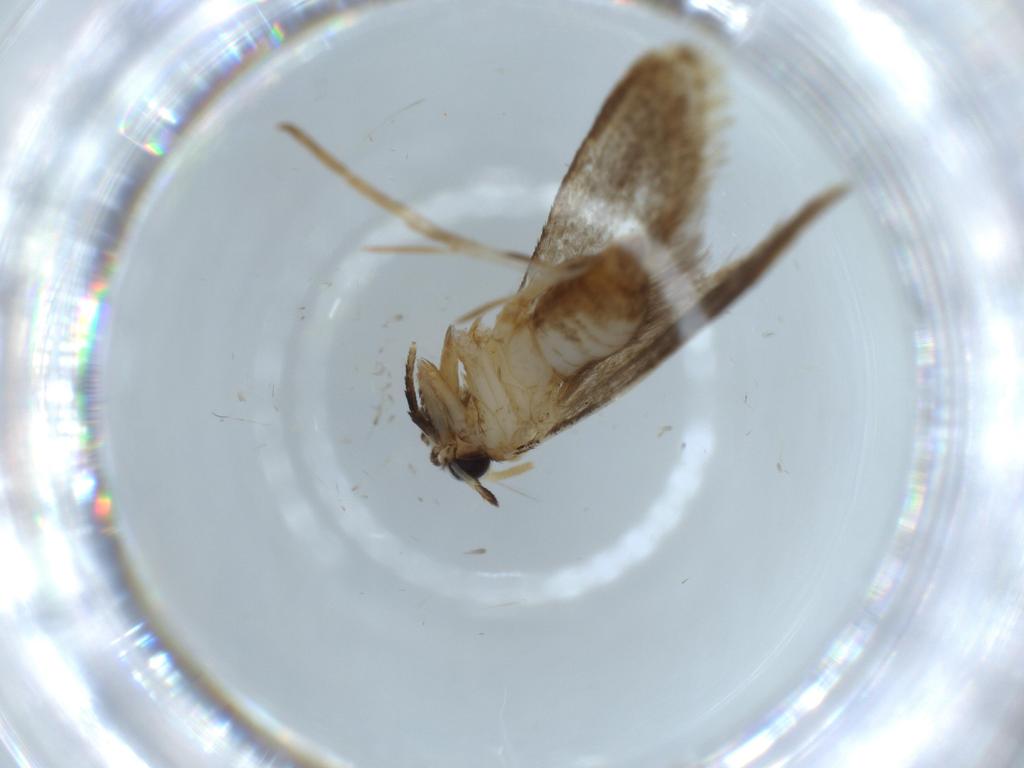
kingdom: Animalia
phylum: Arthropoda
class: Insecta
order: Lepidoptera
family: Tineidae
